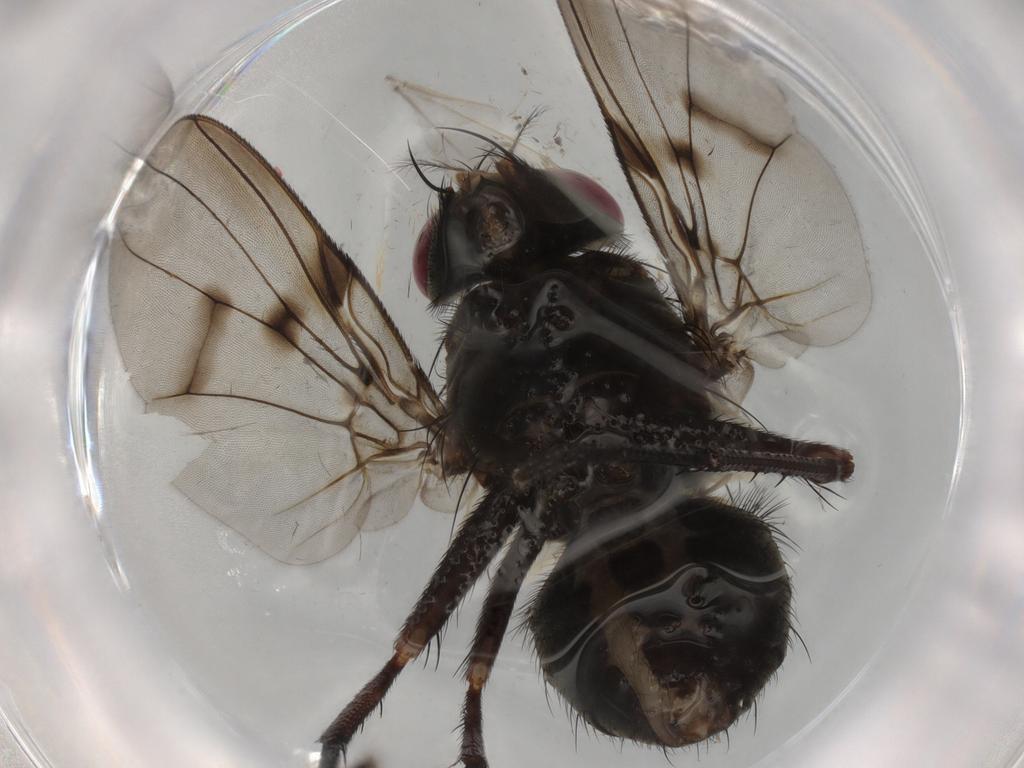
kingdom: Animalia
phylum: Arthropoda
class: Insecta
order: Diptera
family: Muscidae
